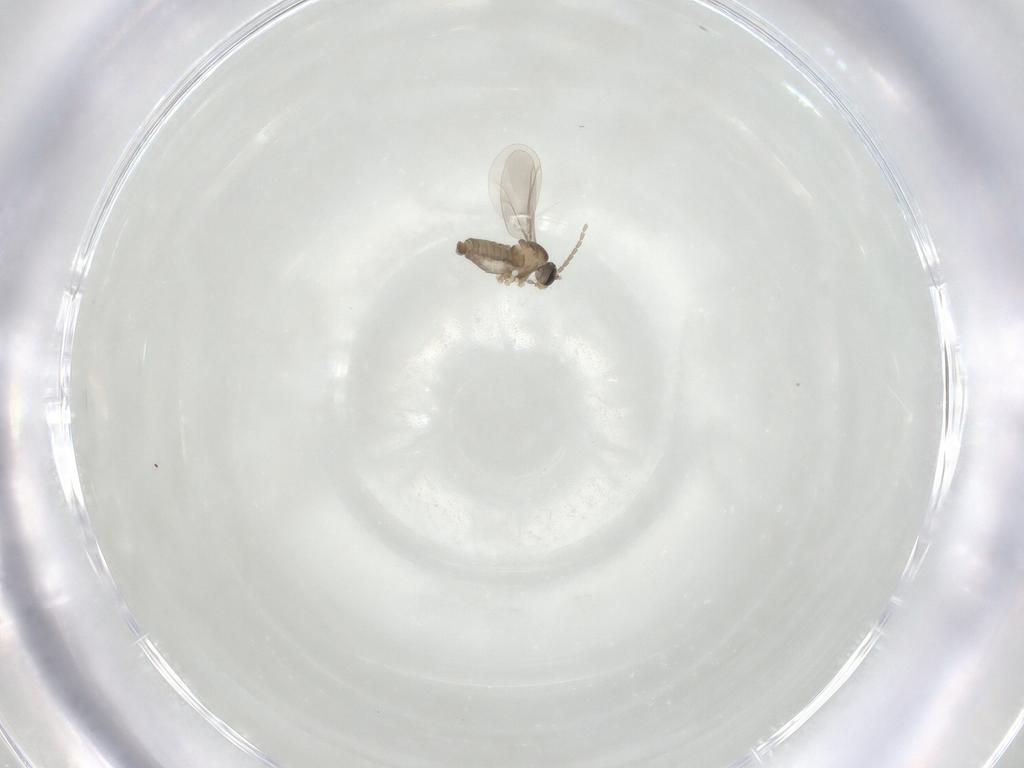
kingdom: Animalia
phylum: Arthropoda
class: Insecta
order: Diptera
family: Cecidomyiidae
